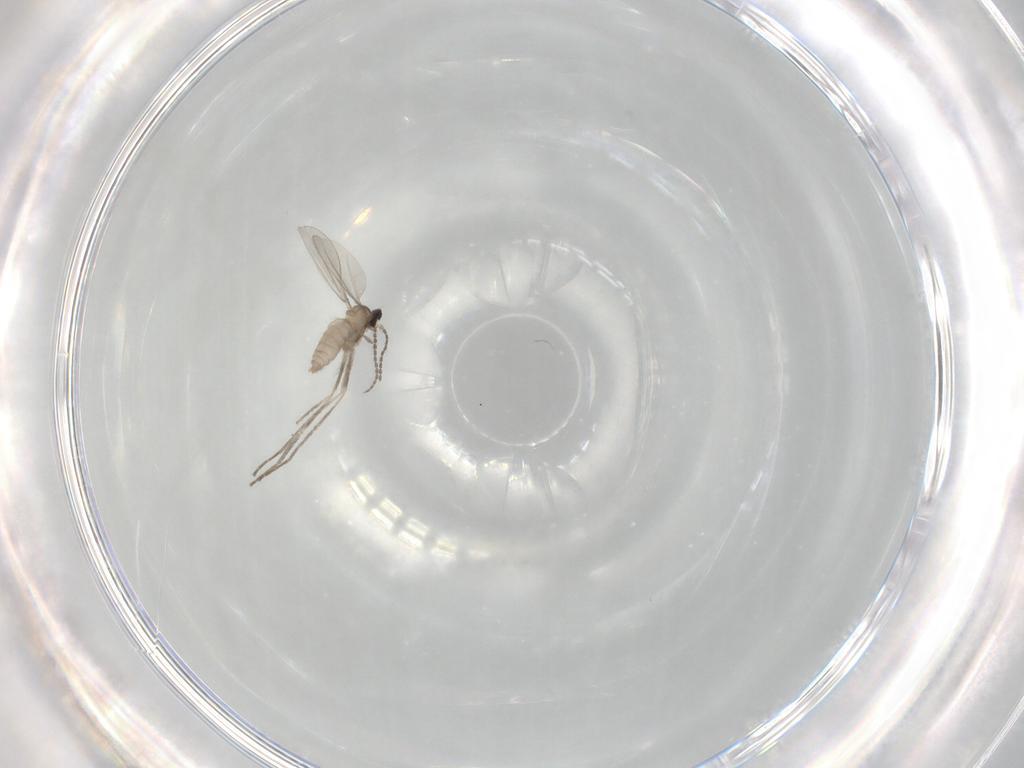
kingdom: Animalia
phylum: Arthropoda
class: Insecta
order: Diptera
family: Cecidomyiidae
